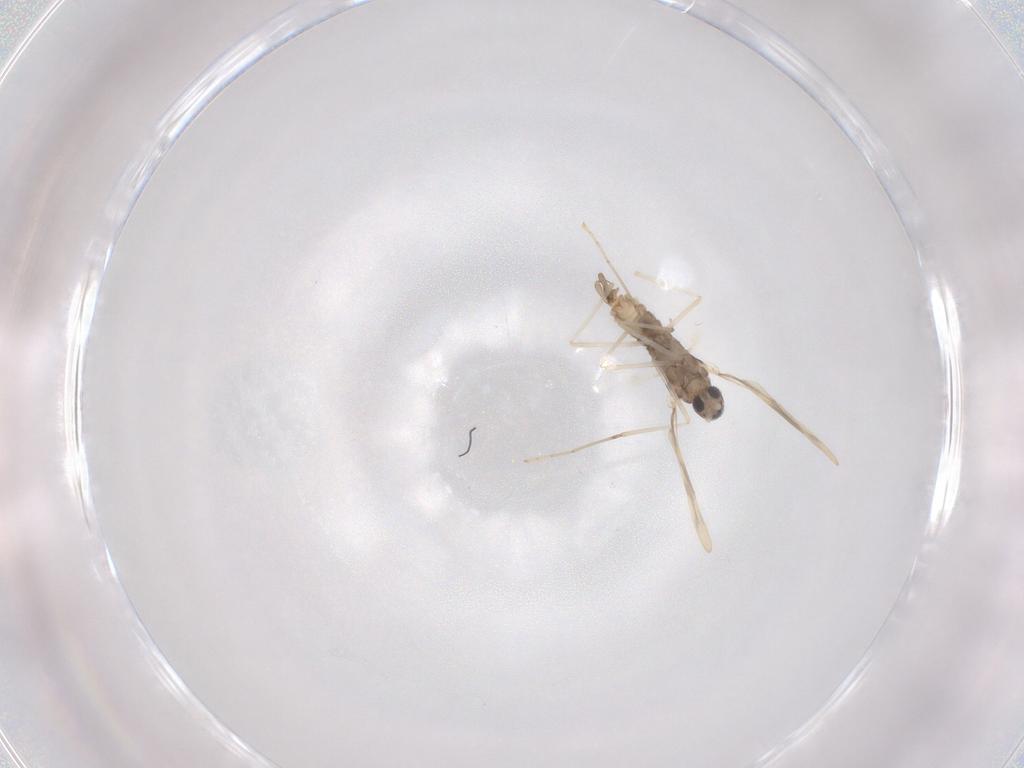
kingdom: Animalia
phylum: Arthropoda
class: Insecta
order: Diptera
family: Cecidomyiidae
